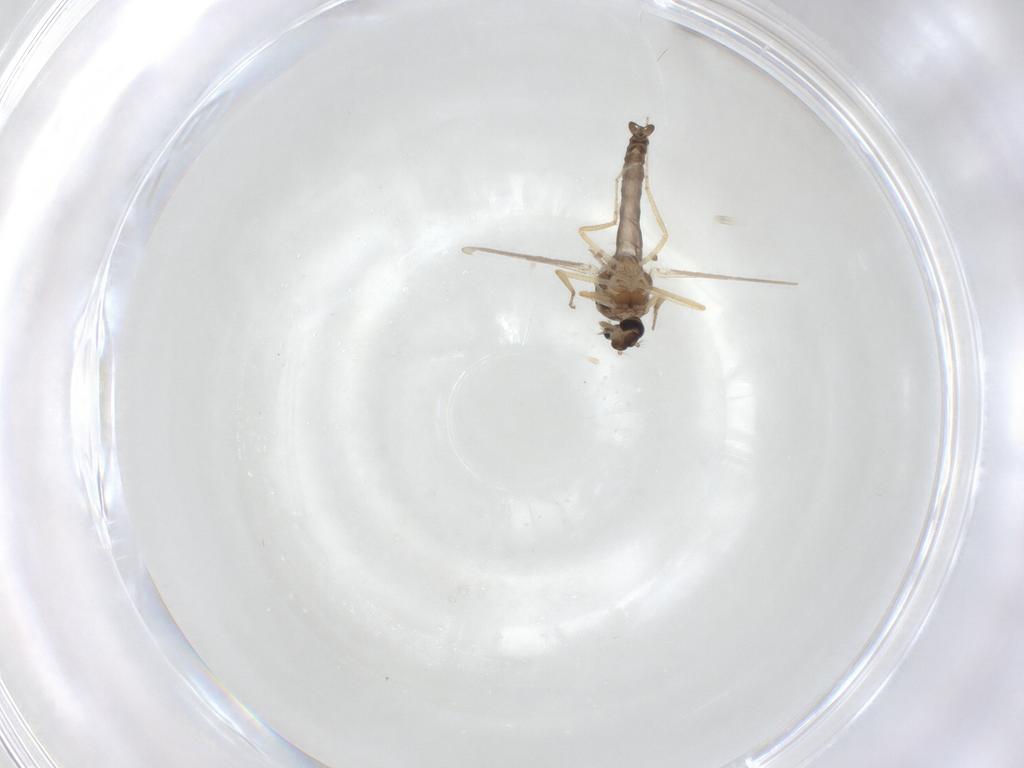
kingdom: Animalia
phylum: Arthropoda
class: Insecta
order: Diptera
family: Ceratopogonidae
